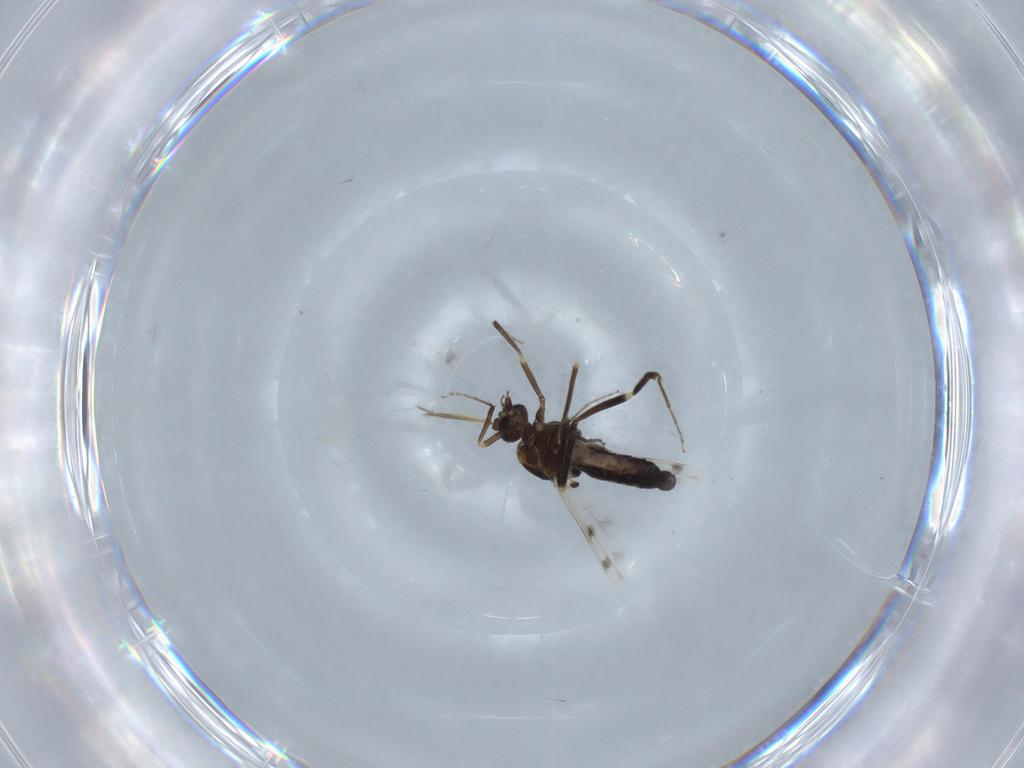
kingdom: Animalia
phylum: Arthropoda
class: Insecta
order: Diptera
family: Ceratopogonidae
